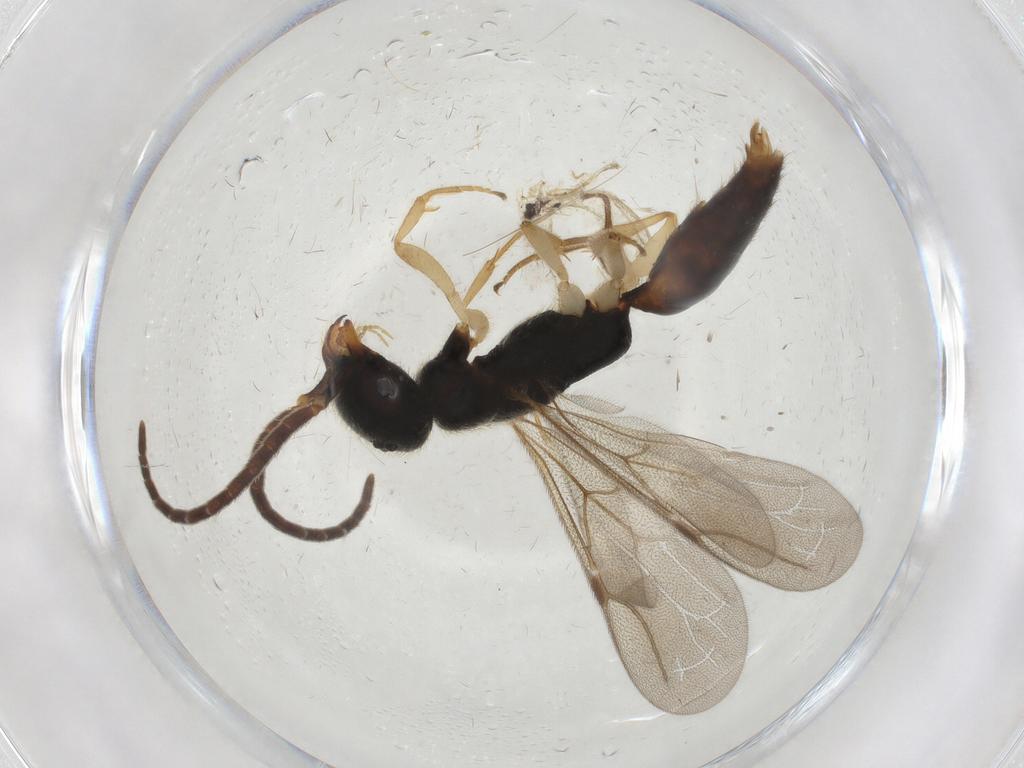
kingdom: Animalia
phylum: Arthropoda
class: Insecta
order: Hymenoptera
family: Bethylidae
